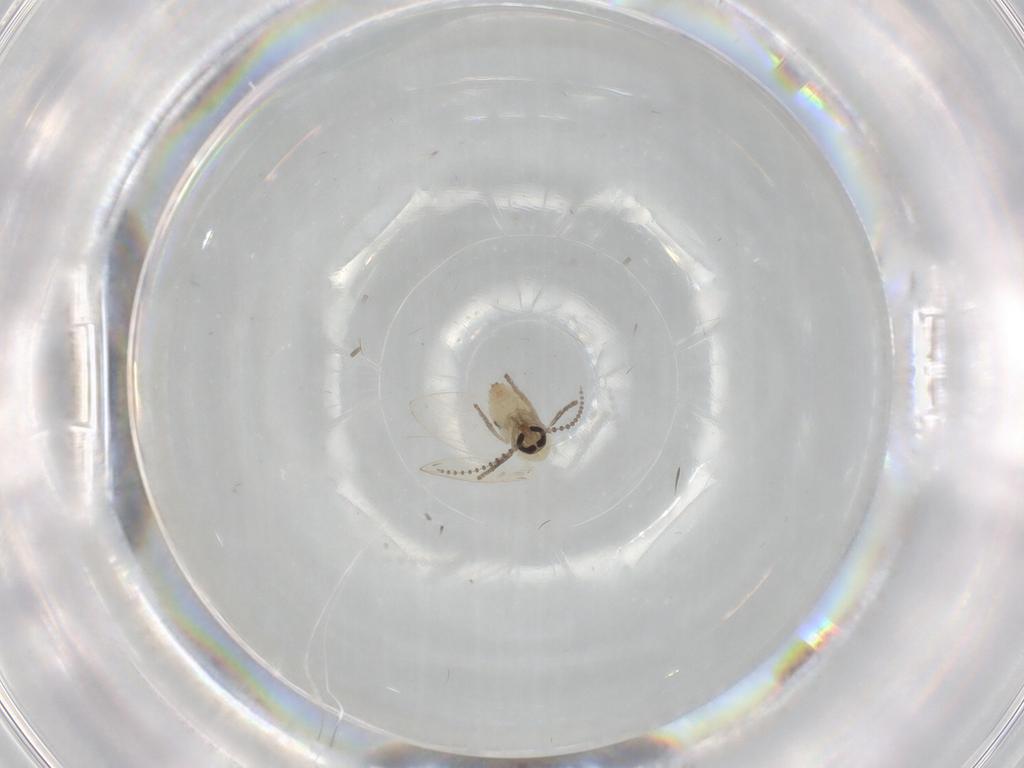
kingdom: Animalia
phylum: Arthropoda
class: Insecta
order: Diptera
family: Psychodidae
